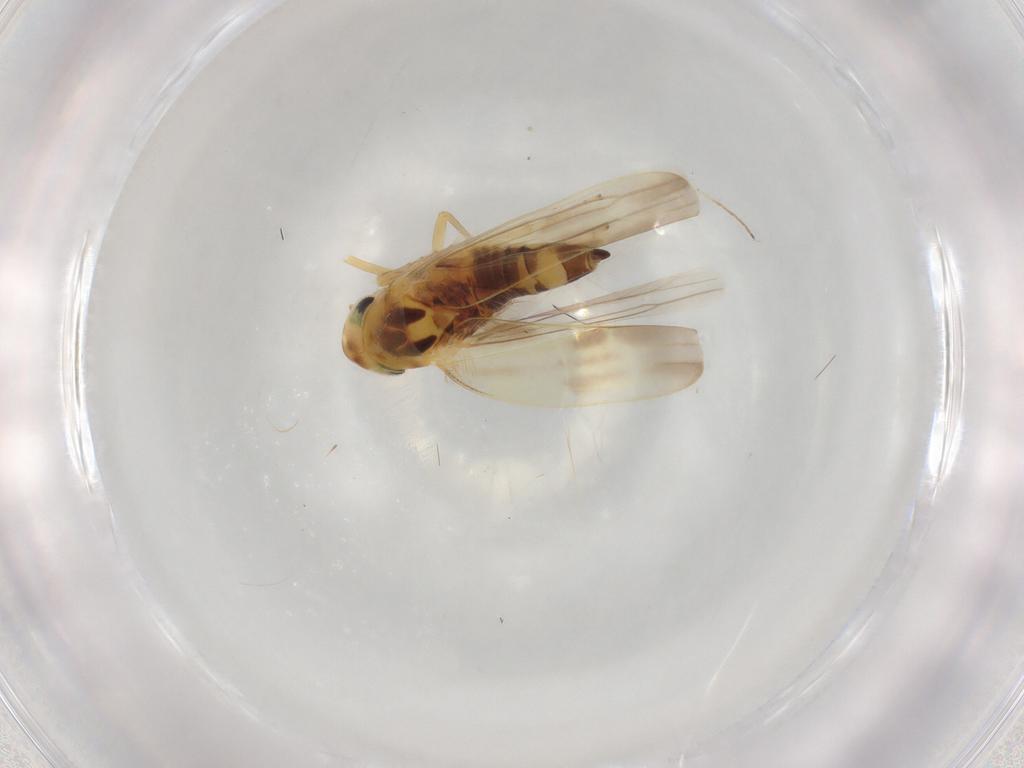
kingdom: Animalia
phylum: Arthropoda
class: Insecta
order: Hemiptera
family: Cicadellidae
